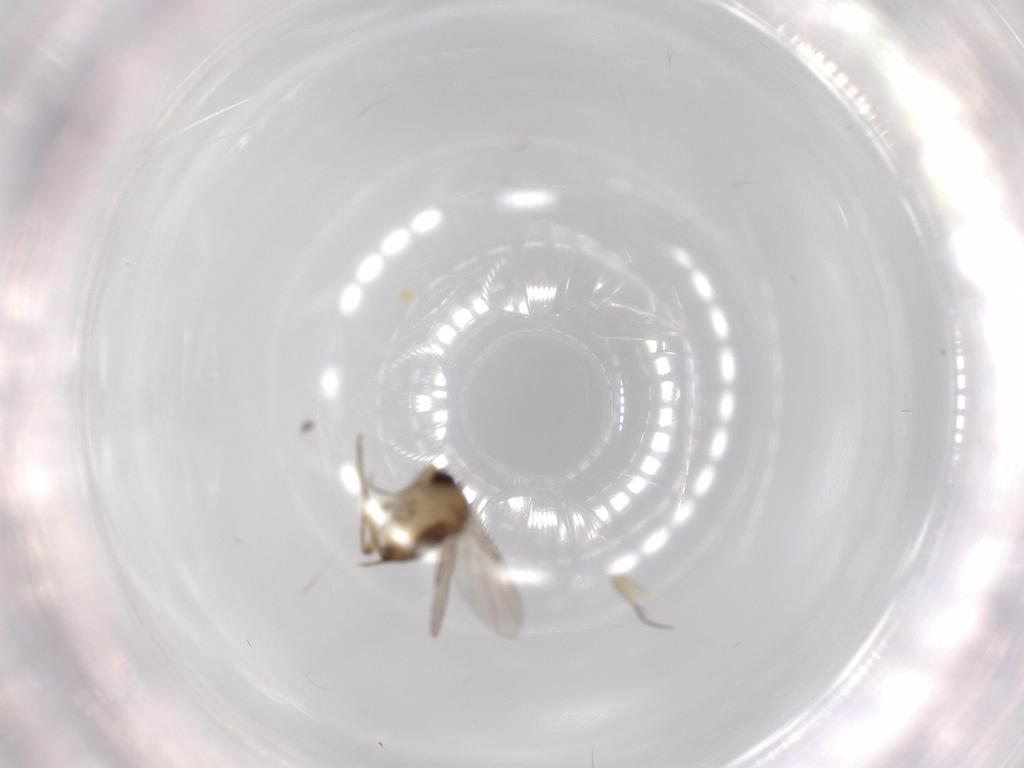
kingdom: Animalia
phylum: Arthropoda
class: Insecta
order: Diptera
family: Phoridae
